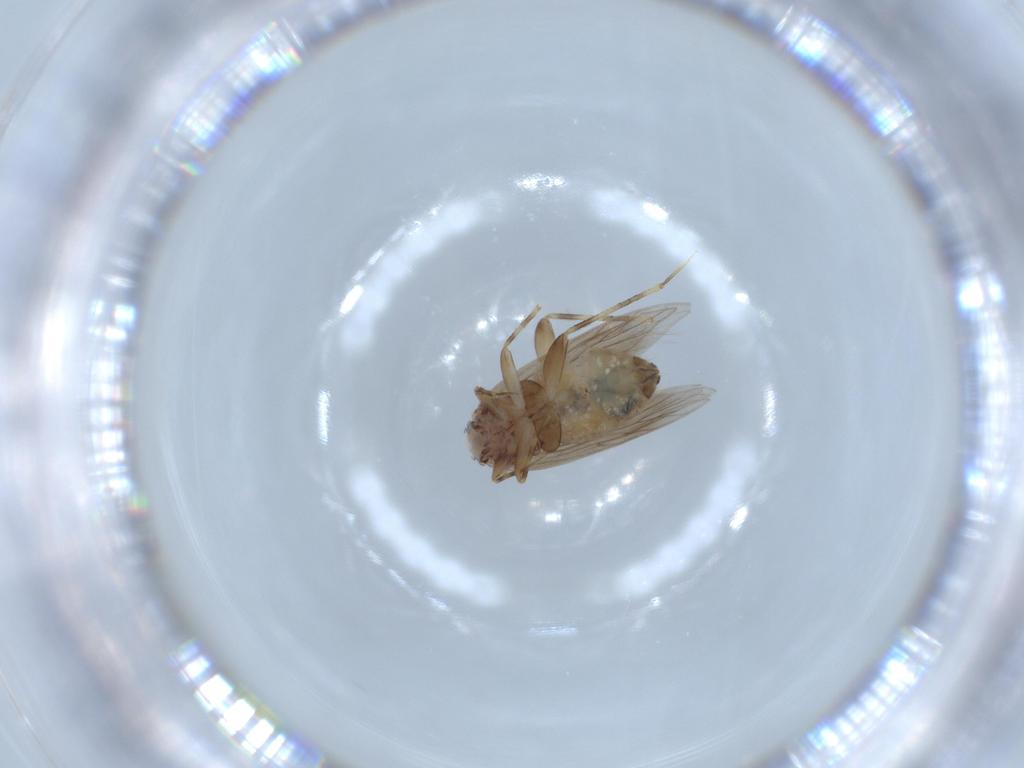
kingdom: Animalia
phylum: Arthropoda
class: Insecta
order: Psocodea
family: Lepidopsocidae
